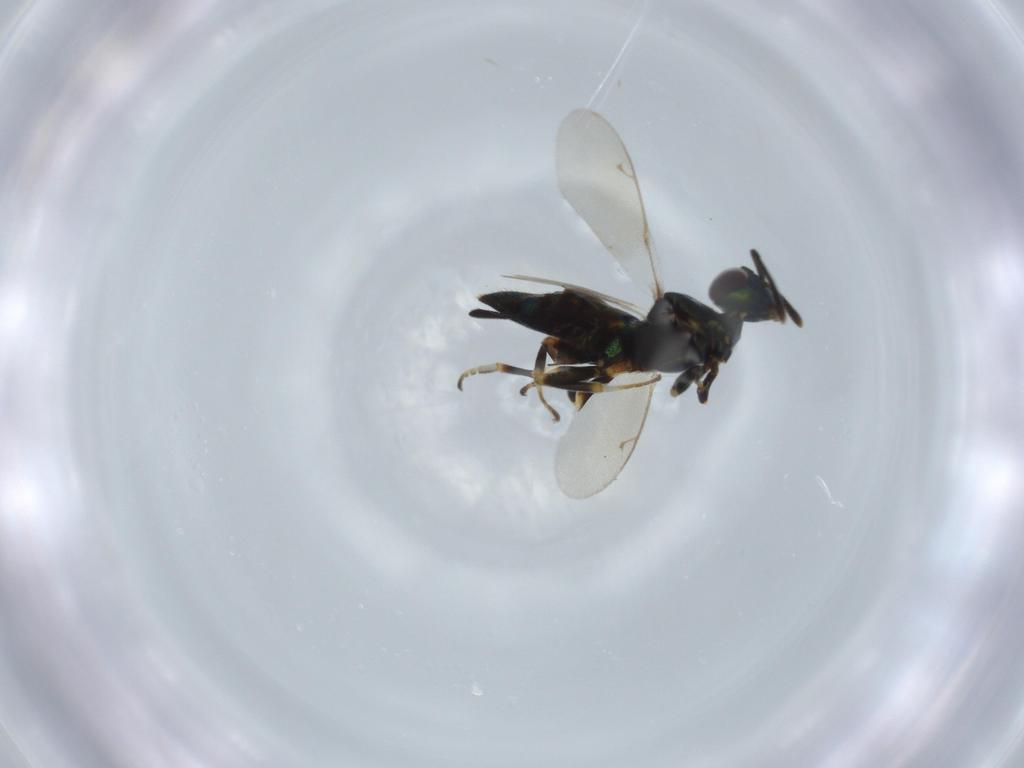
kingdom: Animalia
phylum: Arthropoda
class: Insecta
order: Hymenoptera
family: Eupelmidae
